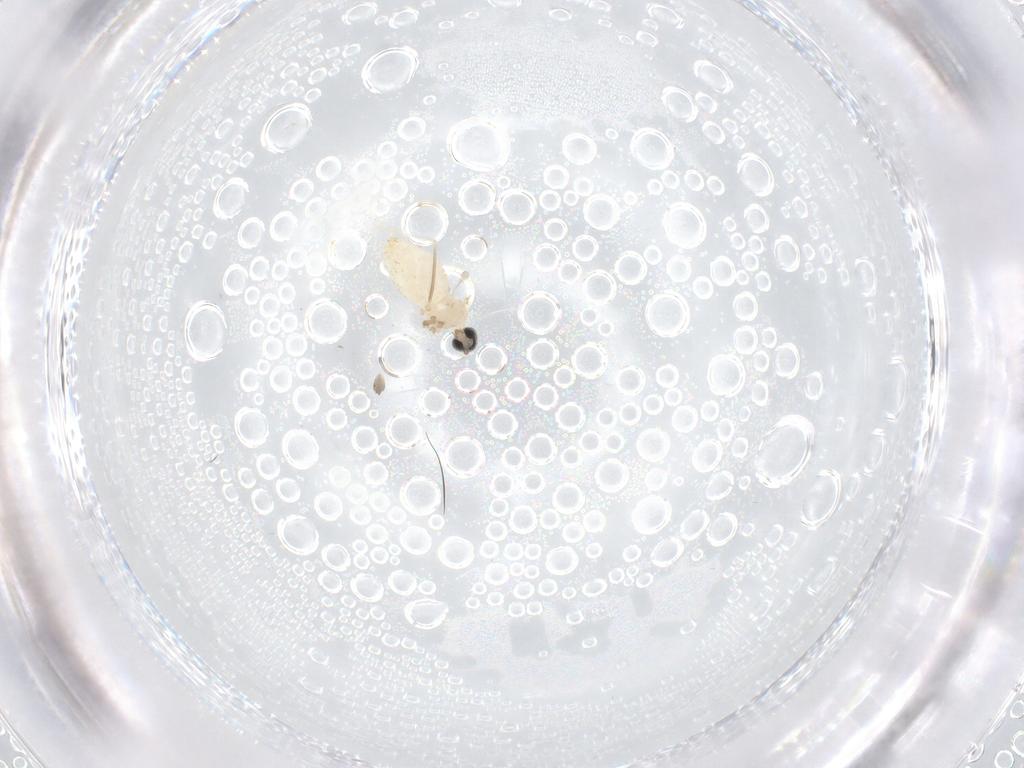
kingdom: Animalia
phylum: Arthropoda
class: Insecta
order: Diptera
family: Cecidomyiidae
